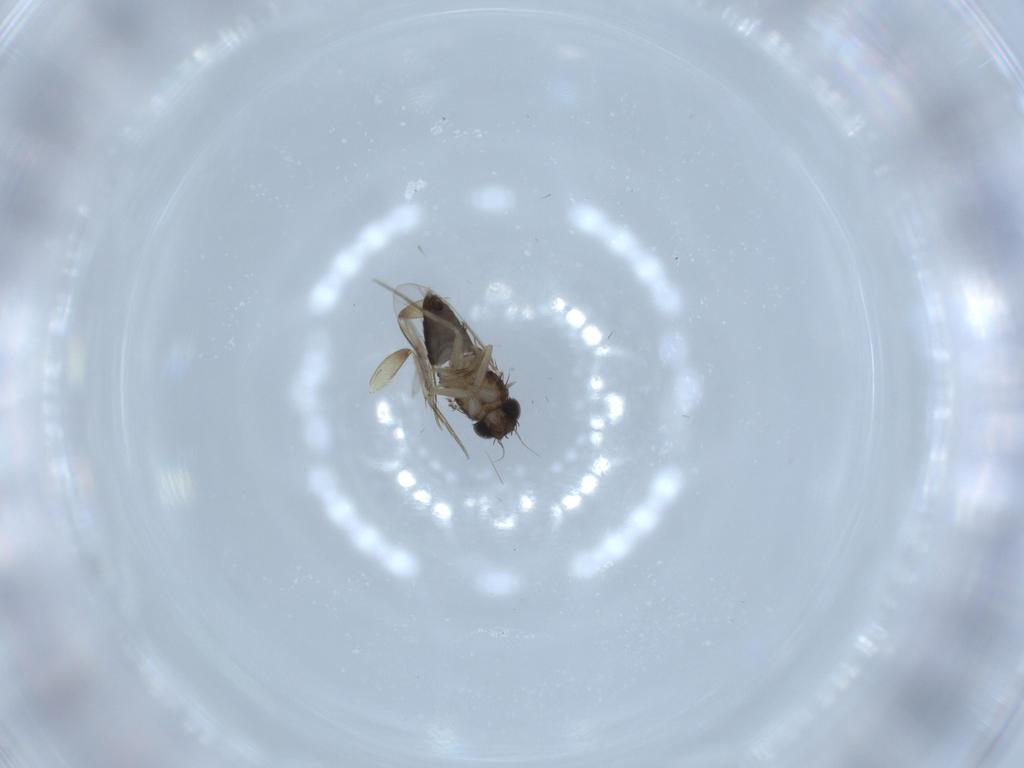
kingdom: Animalia
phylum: Arthropoda
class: Insecta
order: Diptera
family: Phoridae
